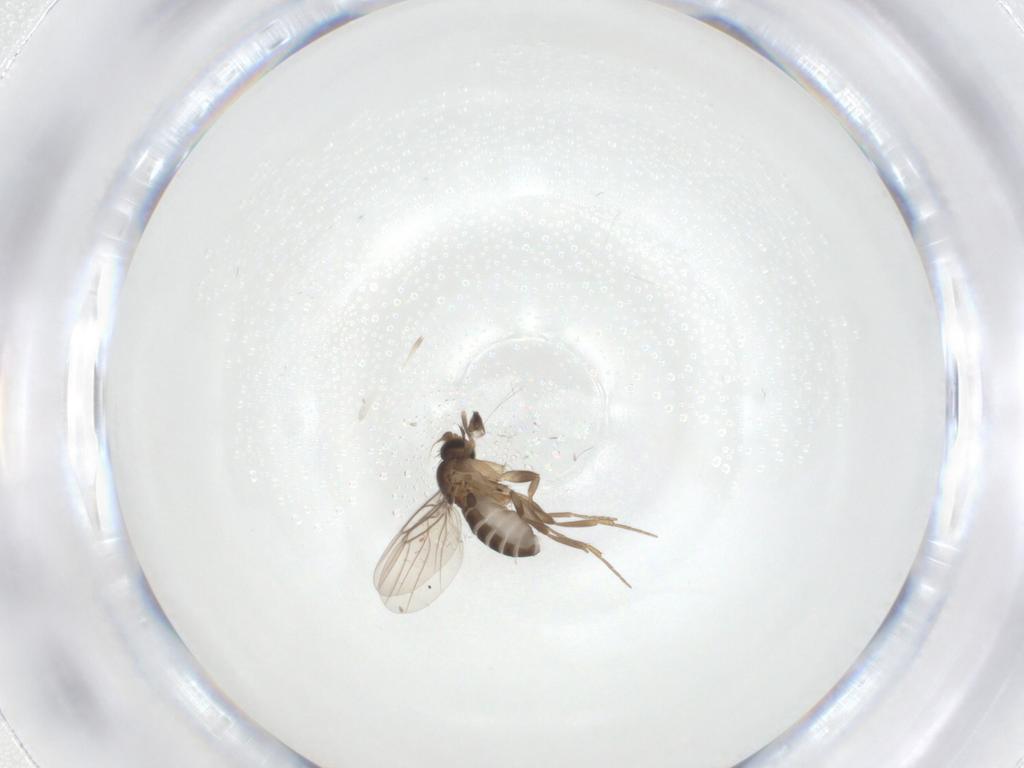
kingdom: Animalia
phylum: Arthropoda
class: Insecta
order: Diptera
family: Phoridae
